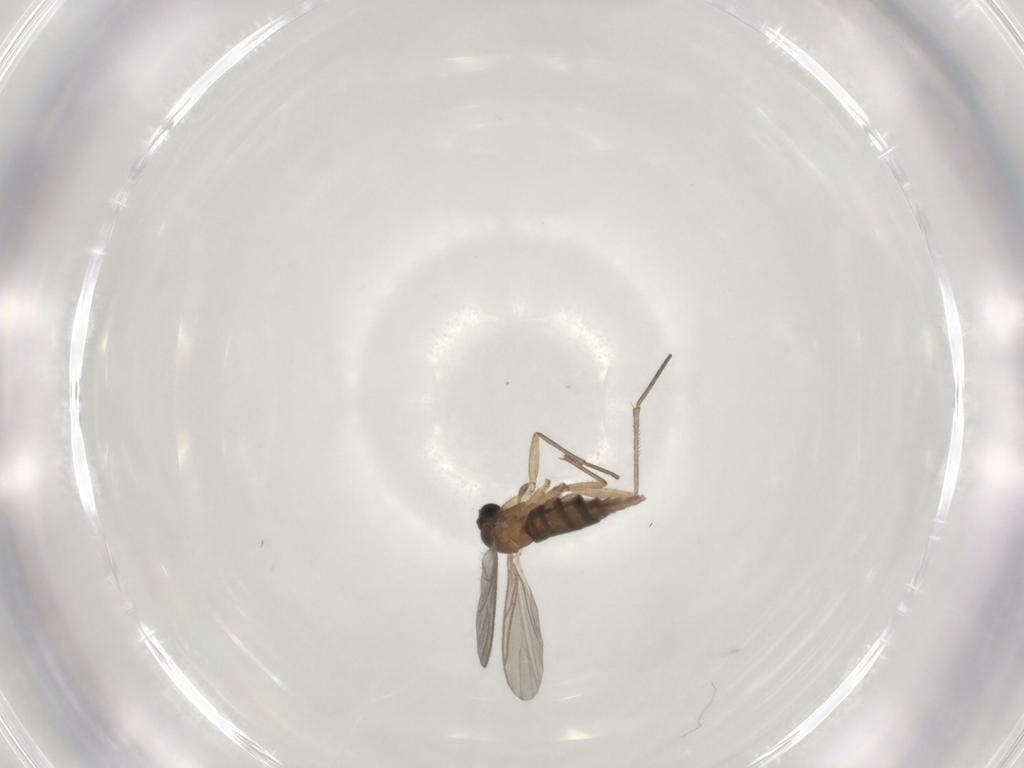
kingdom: Animalia
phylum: Arthropoda
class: Insecta
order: Diptera
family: Sciaridae
